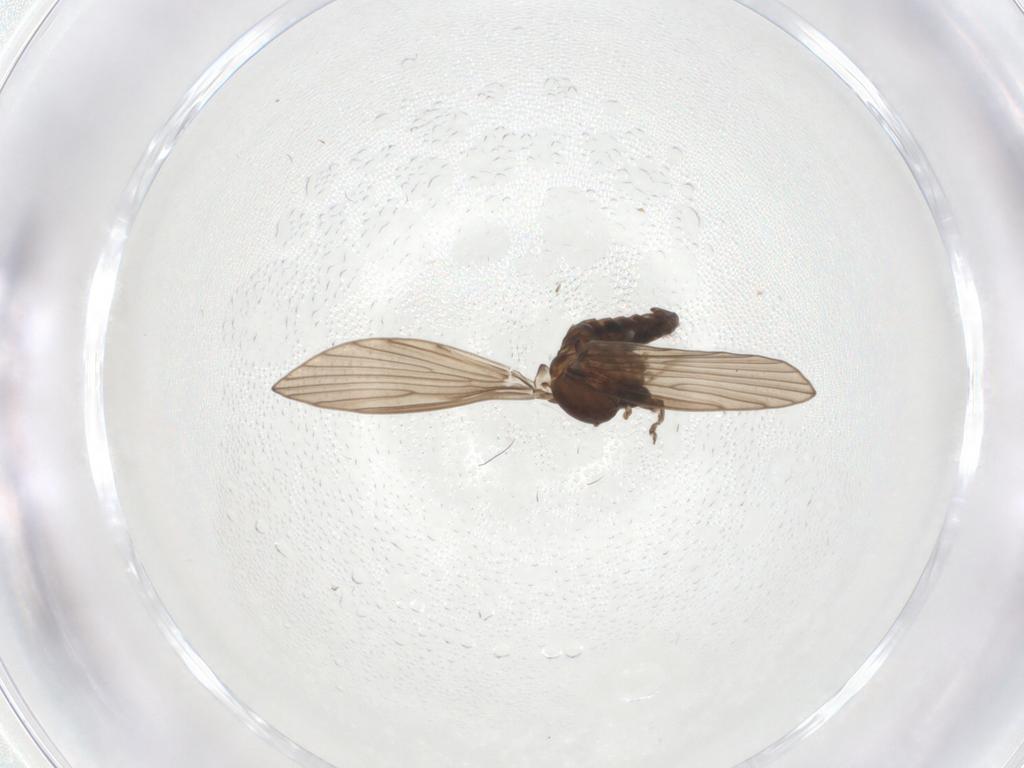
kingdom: Animalia
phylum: Arthropoda
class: Insecta
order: Diptera
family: Psychodidae
